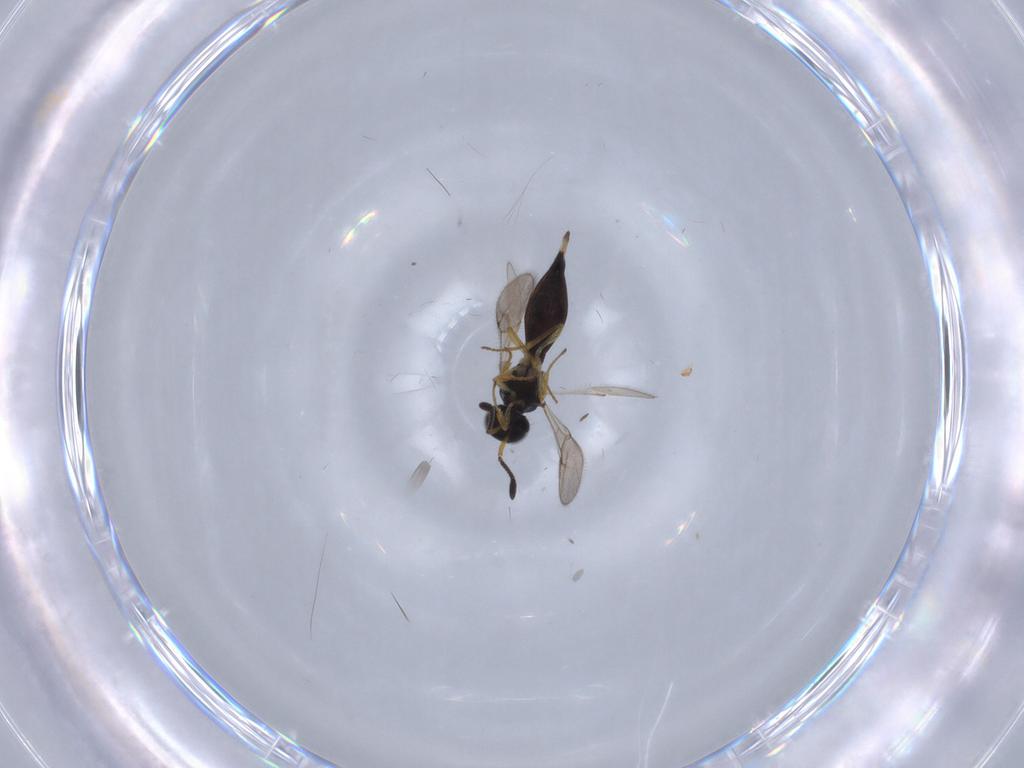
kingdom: Animalia
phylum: Arthropoda
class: Insecta
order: Hymenoptera
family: Scelionidae
